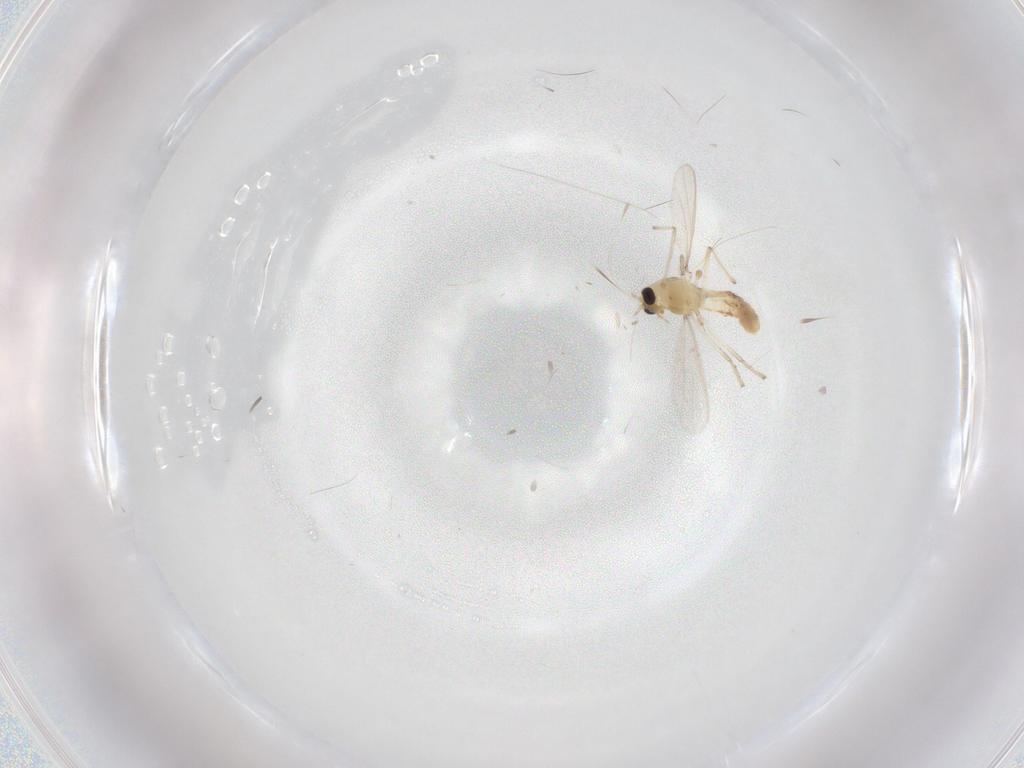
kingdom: Animalia
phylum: Arthropoda
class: Insecta
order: Diptera
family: Chironomidae
